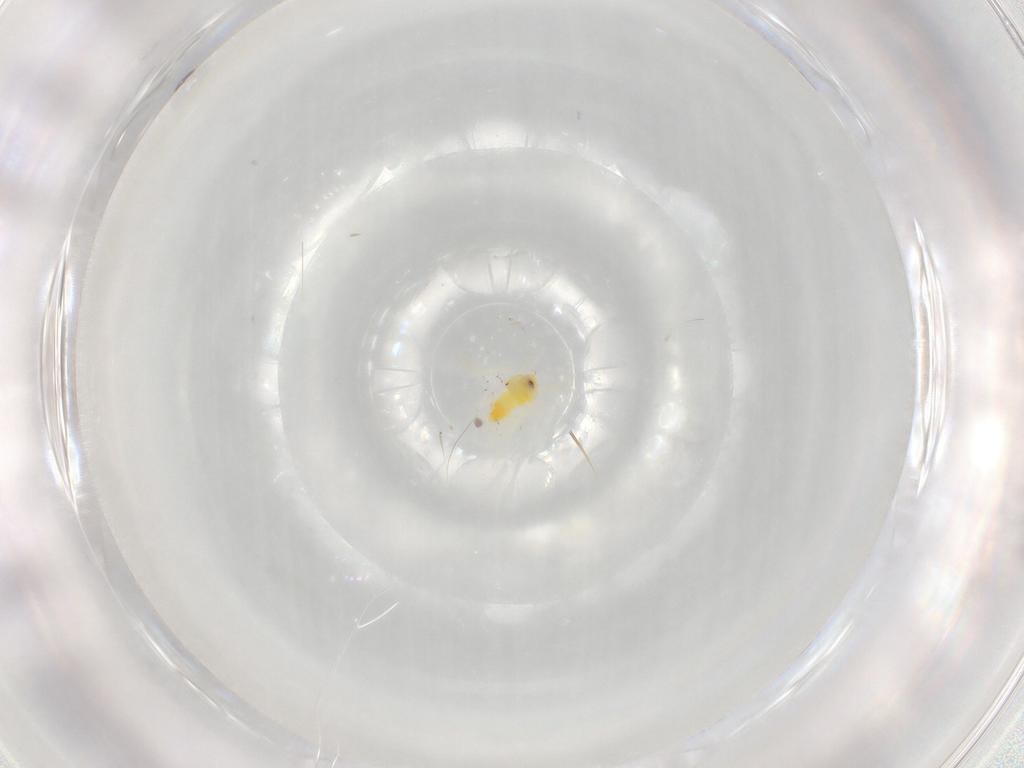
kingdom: Animalia
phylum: Arthropoda
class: Insecta
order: Hemiptera
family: Aleyrodidae
